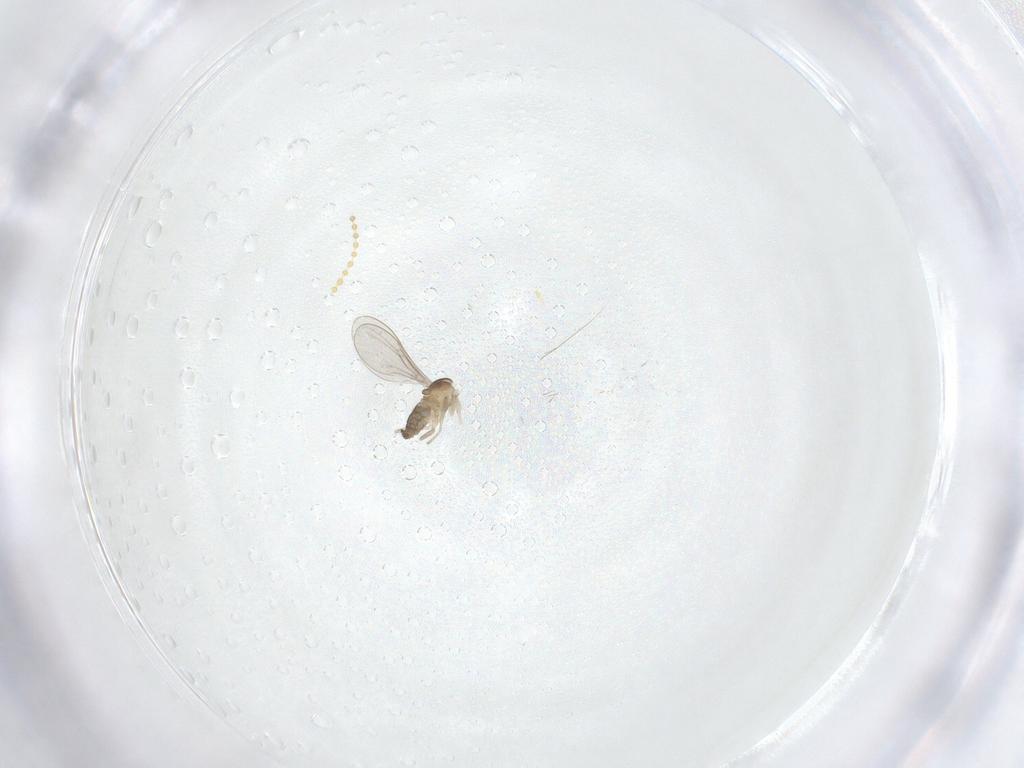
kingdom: Animalia
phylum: Arthropoda
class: Insecta
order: Diptera
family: Cecidomyiidae
